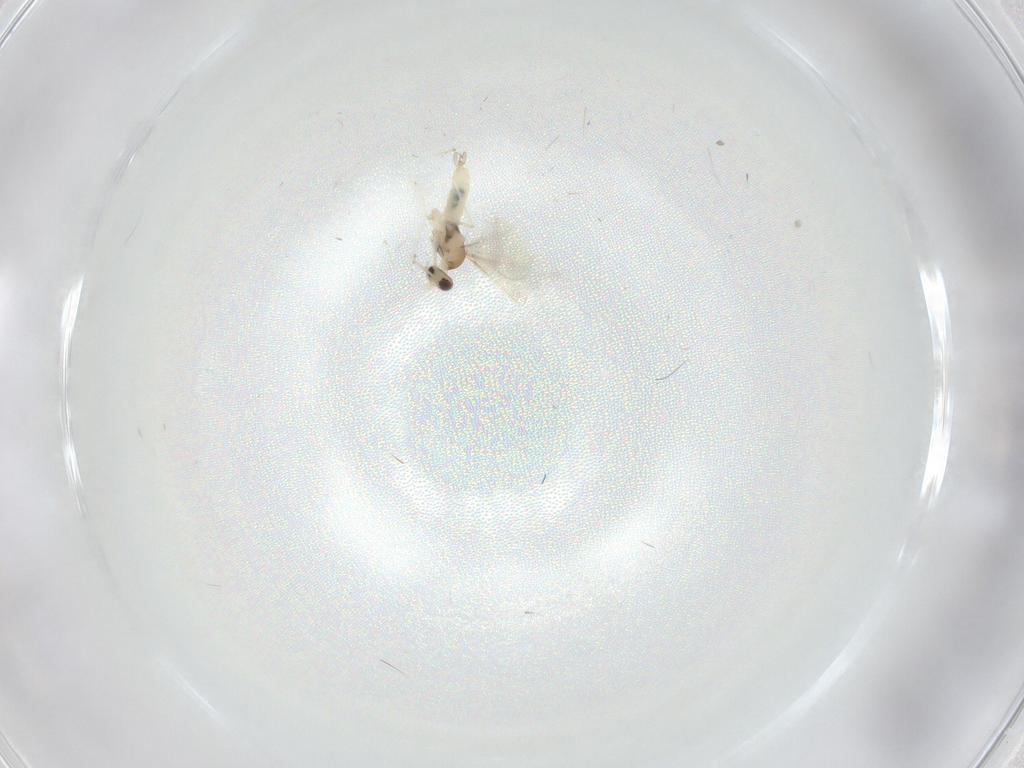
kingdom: Animalia
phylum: Arthropoda
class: Insecta
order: Diptera
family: Cecidomyiidae
